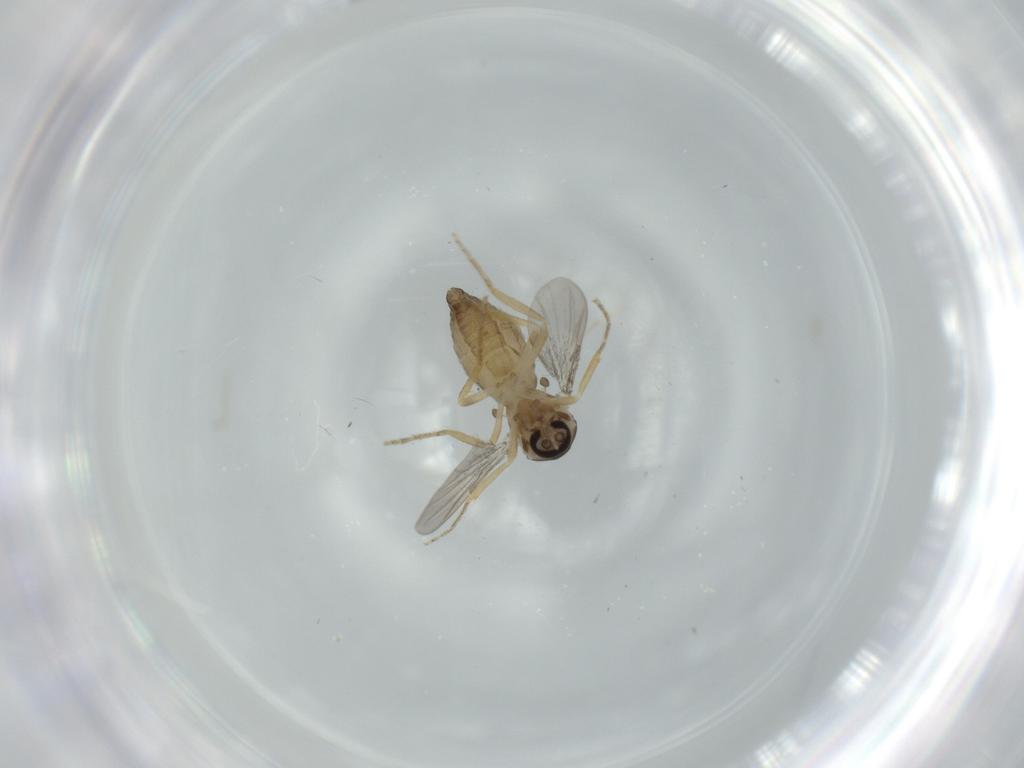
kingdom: Animalia
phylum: Arthropoda
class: Insecta
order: Diptera
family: Ceratopogonidae
